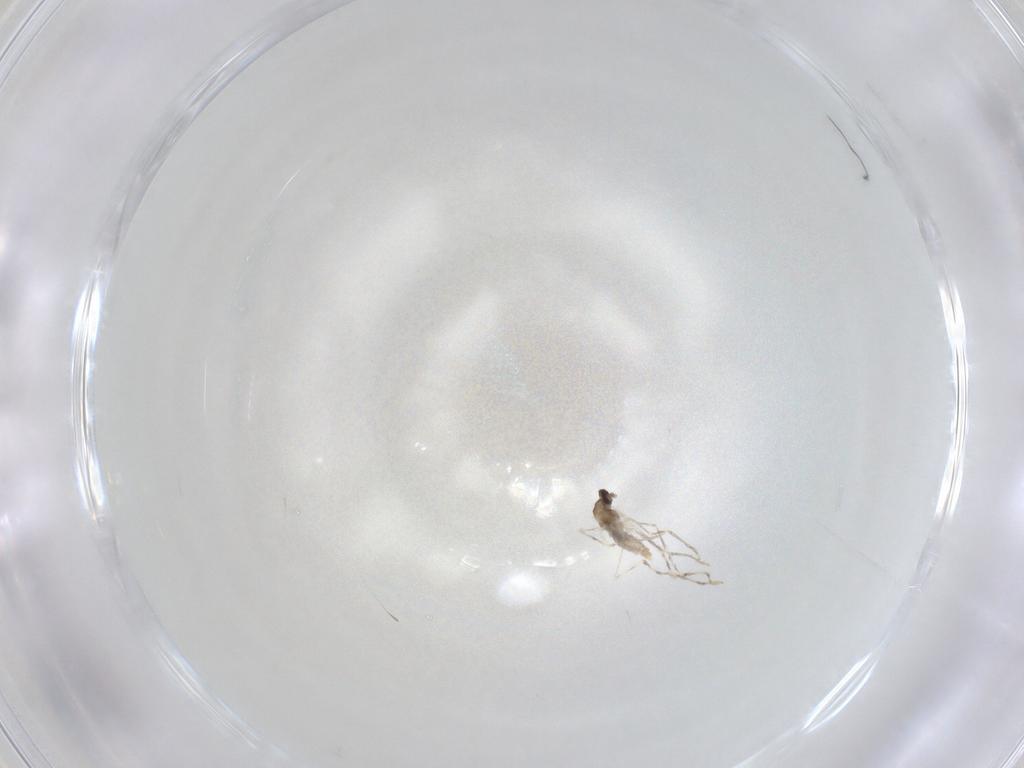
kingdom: Animalia
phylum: Arthropoda
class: Insecta
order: Diptera
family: Cecidomyiidae
